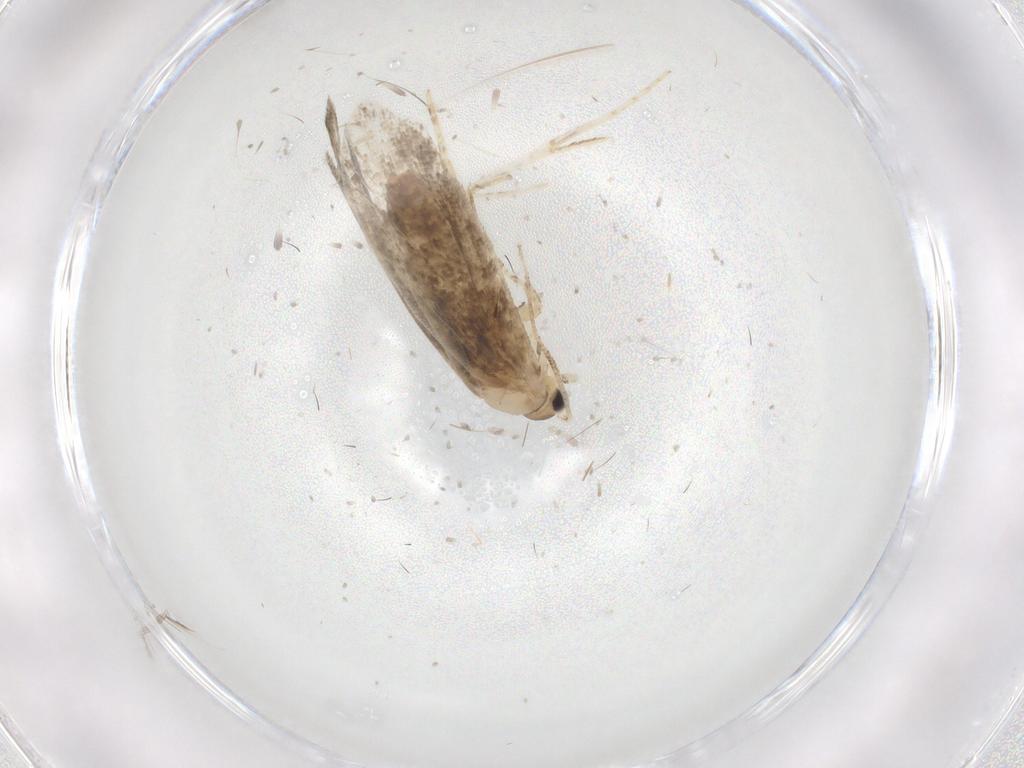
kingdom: Animalia
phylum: Arthropoda
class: Insecta
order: Lepidoptera
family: Tineidae
